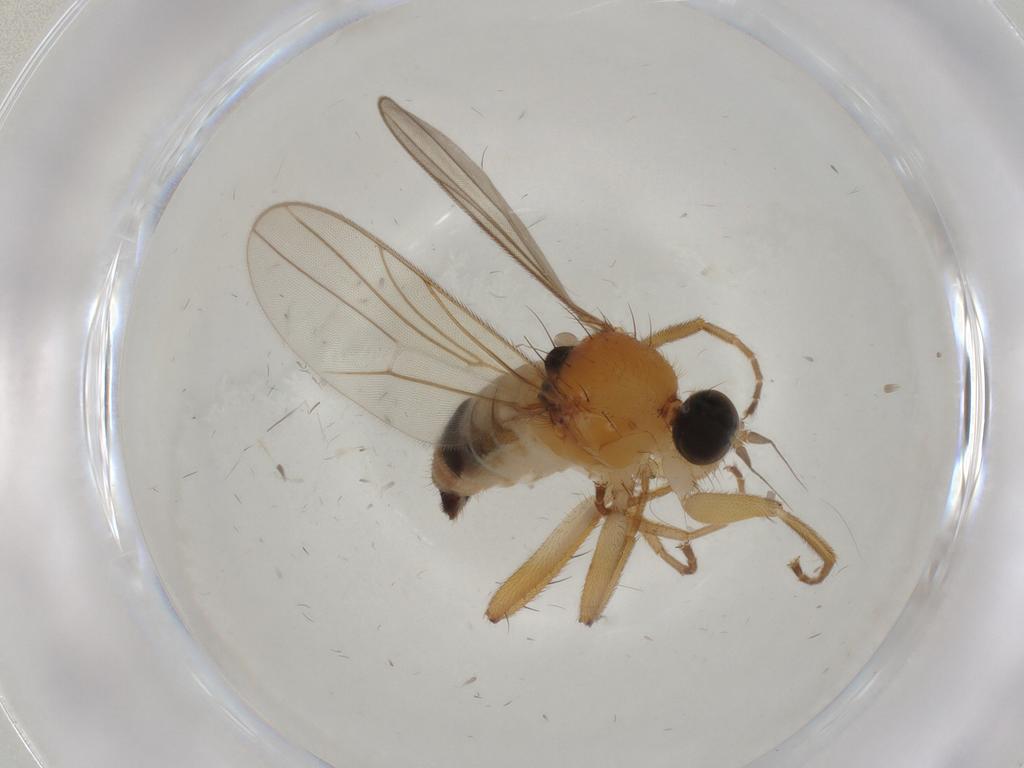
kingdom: Animalia
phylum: Arthropoda
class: Insecta
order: Diptera
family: Hybotidae
